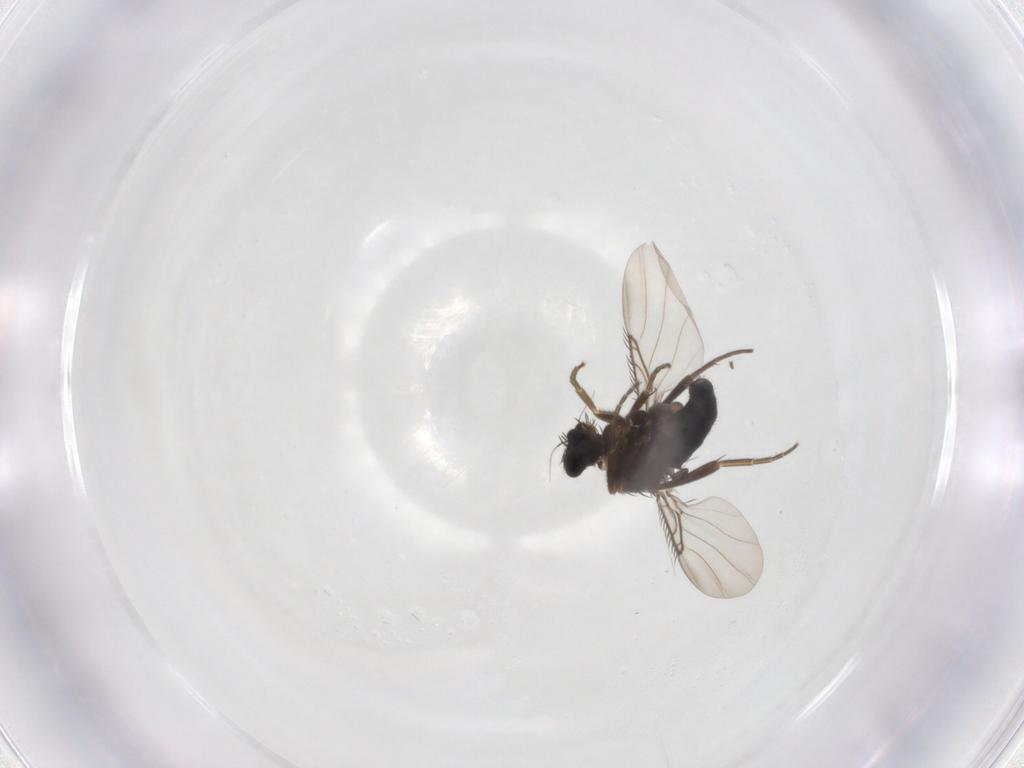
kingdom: Animalia
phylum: Arthropoda
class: Insecta
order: Diptera
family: Phoridae
